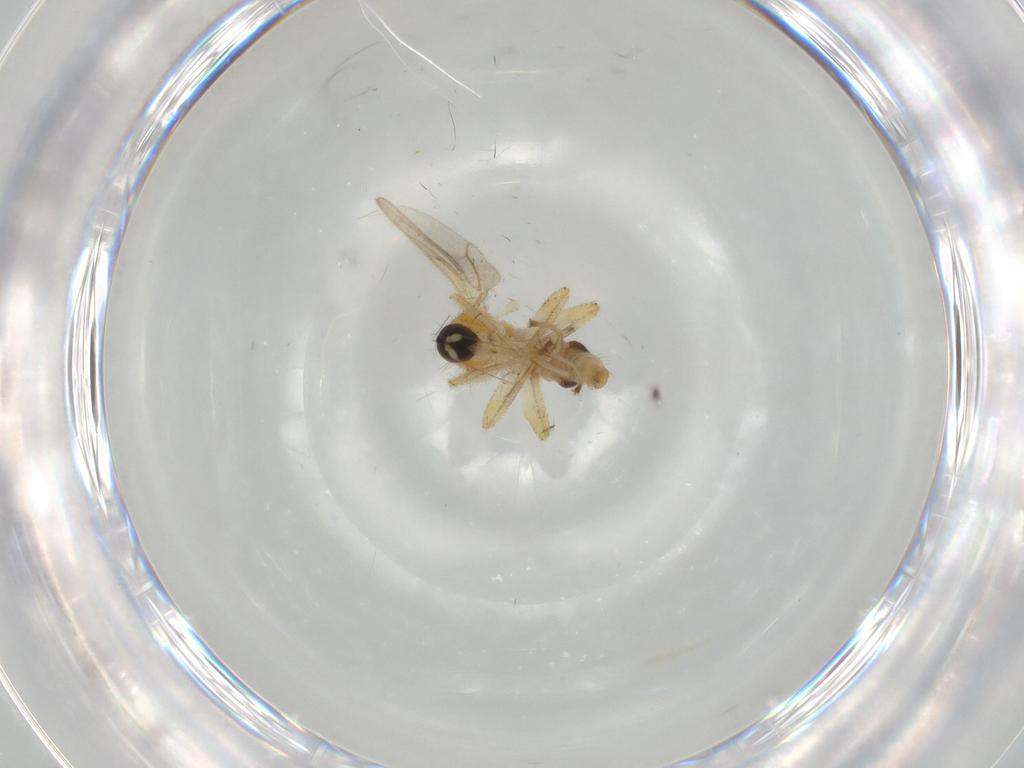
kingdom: Animalia
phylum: Arthropoda
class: Insecta
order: Diptera
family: Hybotidae
